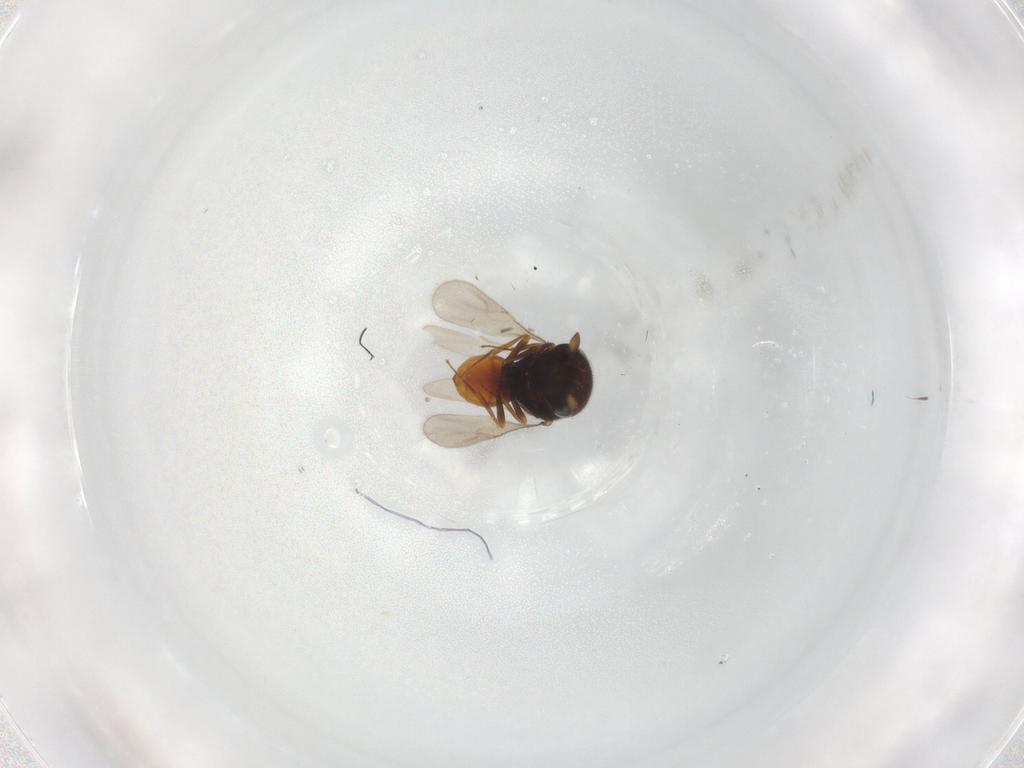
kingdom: Animalia
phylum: Arthropoda
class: Insecta
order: Hymenoptera
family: Scelionidae
